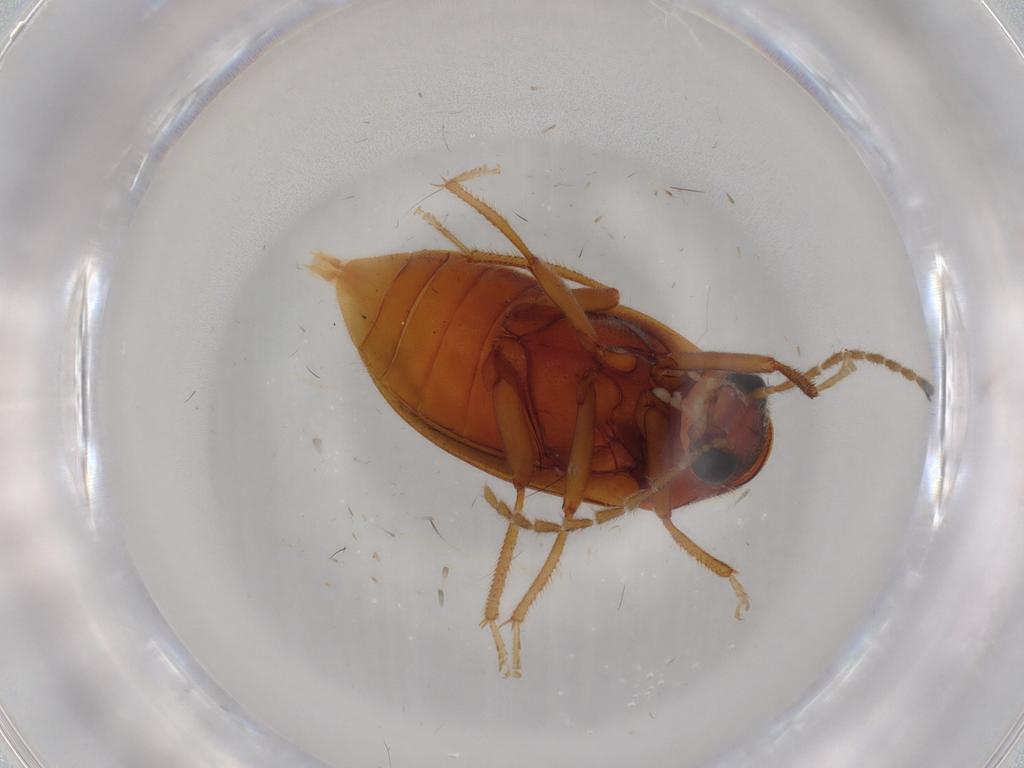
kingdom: Animalia
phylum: Arthropoda
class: Insecta
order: Coleoptera
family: Ptilodactylidae
